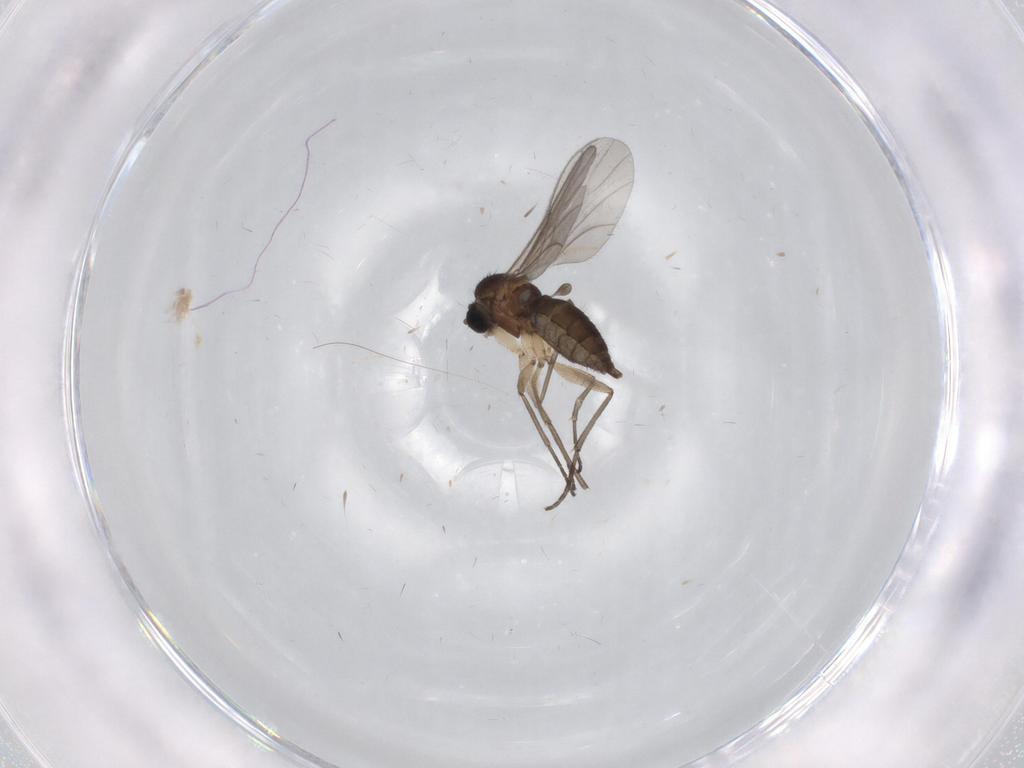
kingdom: Animalia
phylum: Arthropoda
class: Insecta
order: Diptera
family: Sciaridae
